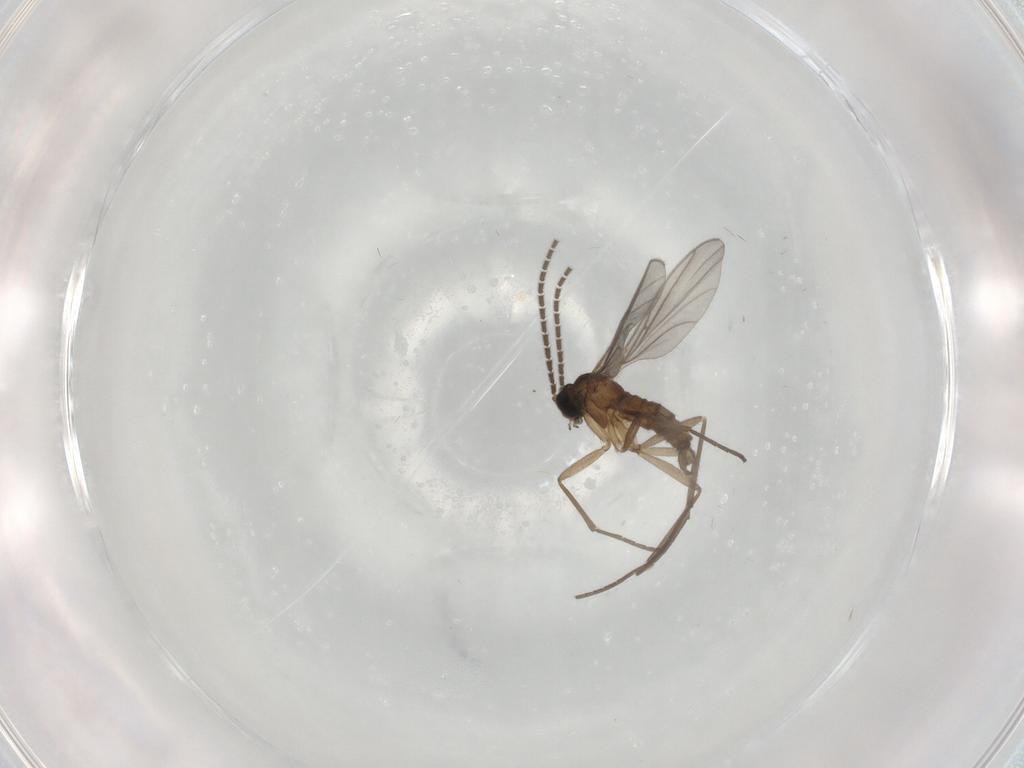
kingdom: Animalia
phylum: Arthropoda
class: Insecta
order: Diptera
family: Sciaridae
